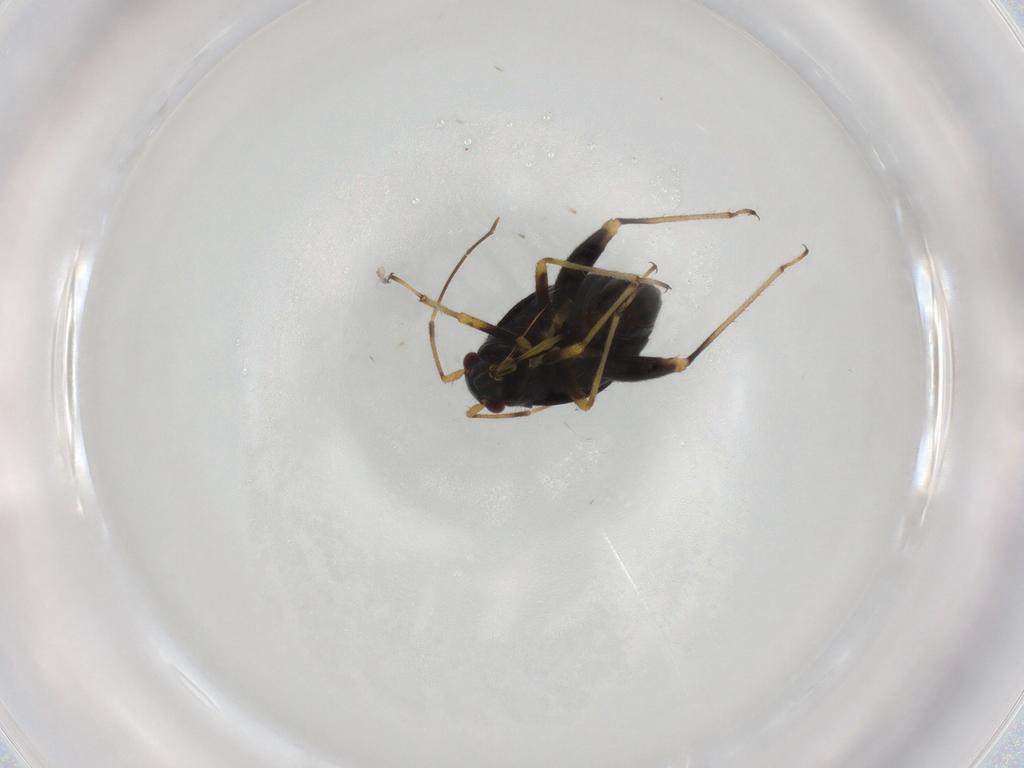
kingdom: Animalia
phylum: Arthropoda
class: Insecta
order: Hemiptera
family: Miridae
